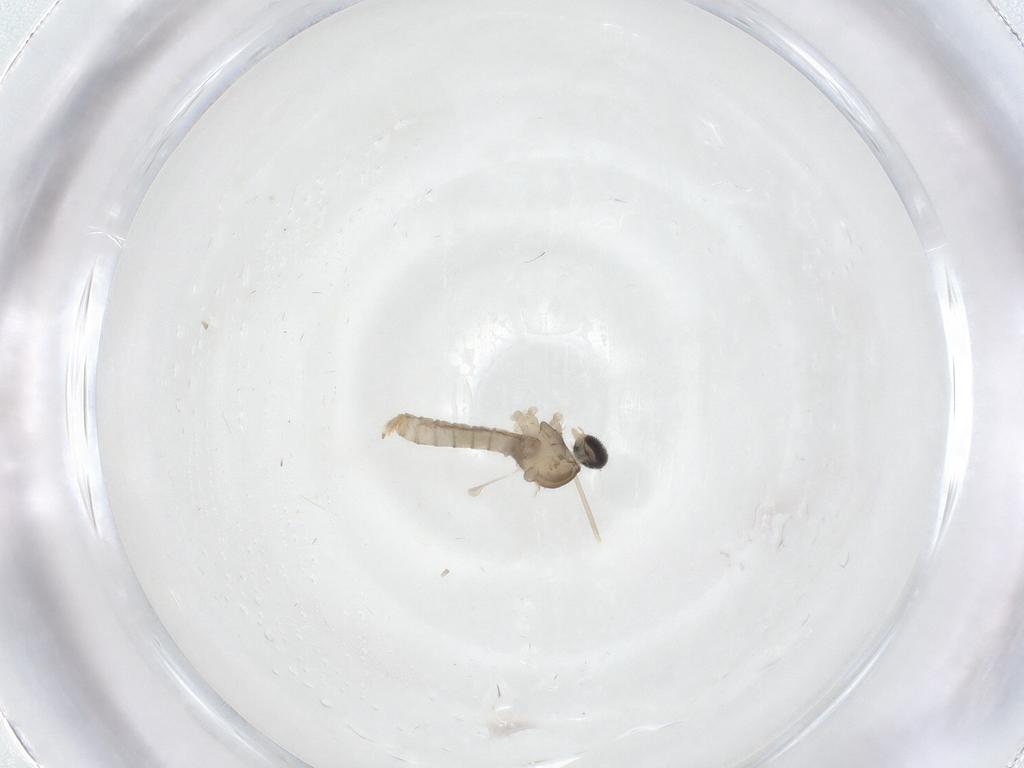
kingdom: Animalia
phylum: Arthropoda
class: Insecta
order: Diptera
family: Cecidomyiidae
